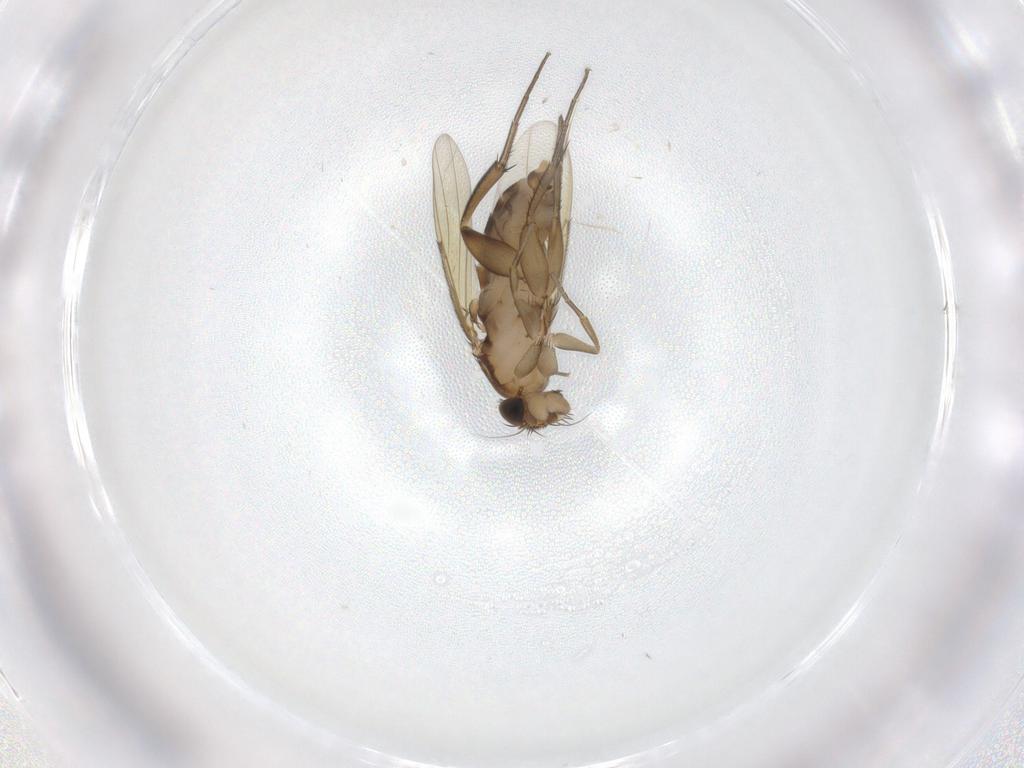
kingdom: Animalia
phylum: Arthropoda
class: Insecta
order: Diptera
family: Phoridae
